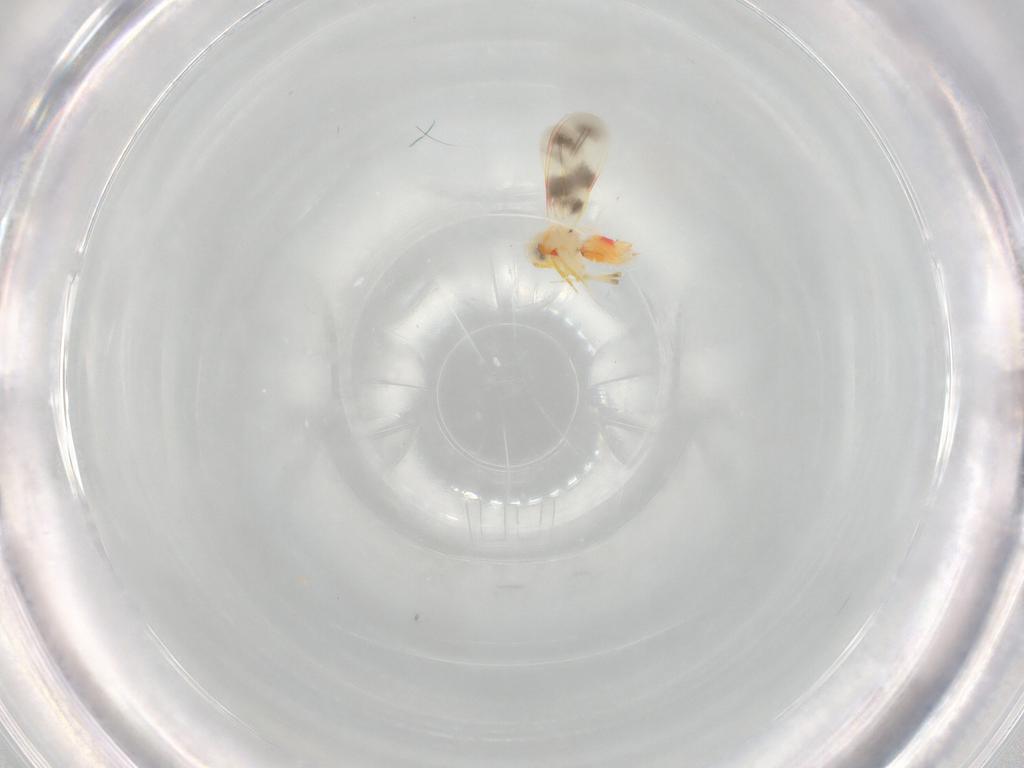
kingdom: Animalia
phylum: Arthropoda
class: Insecta
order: Hemiptera
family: Aleyrodidae
